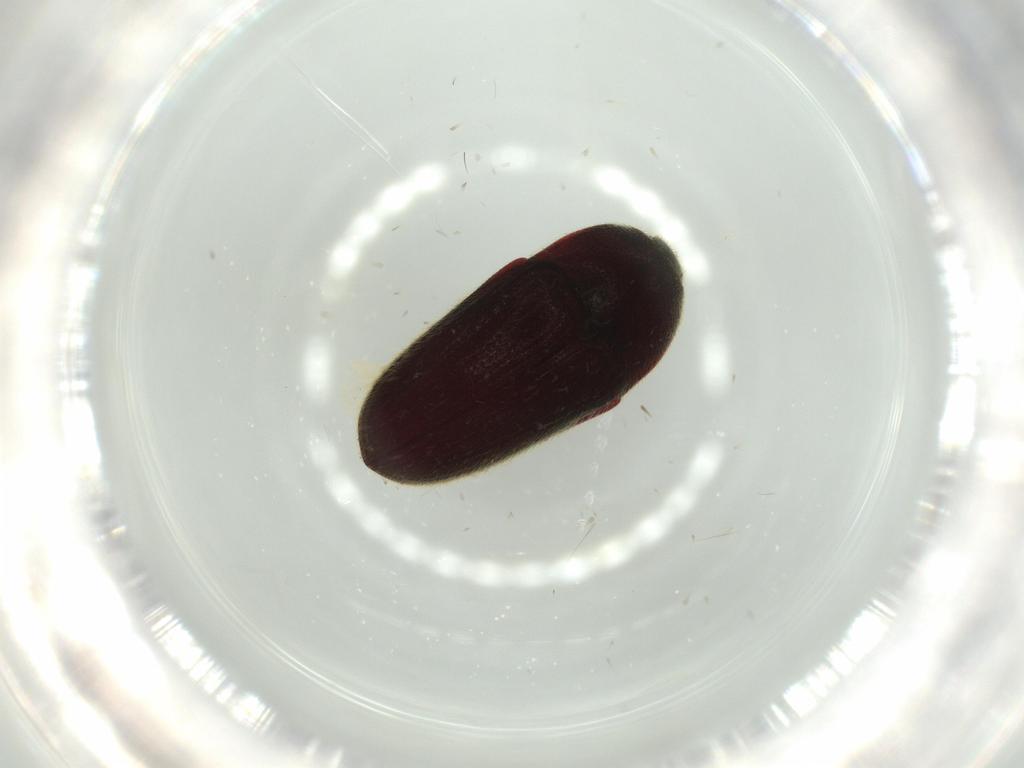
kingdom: Animalia
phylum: Arthropoda
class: Insecta
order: Coleoptera
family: Throscidae
